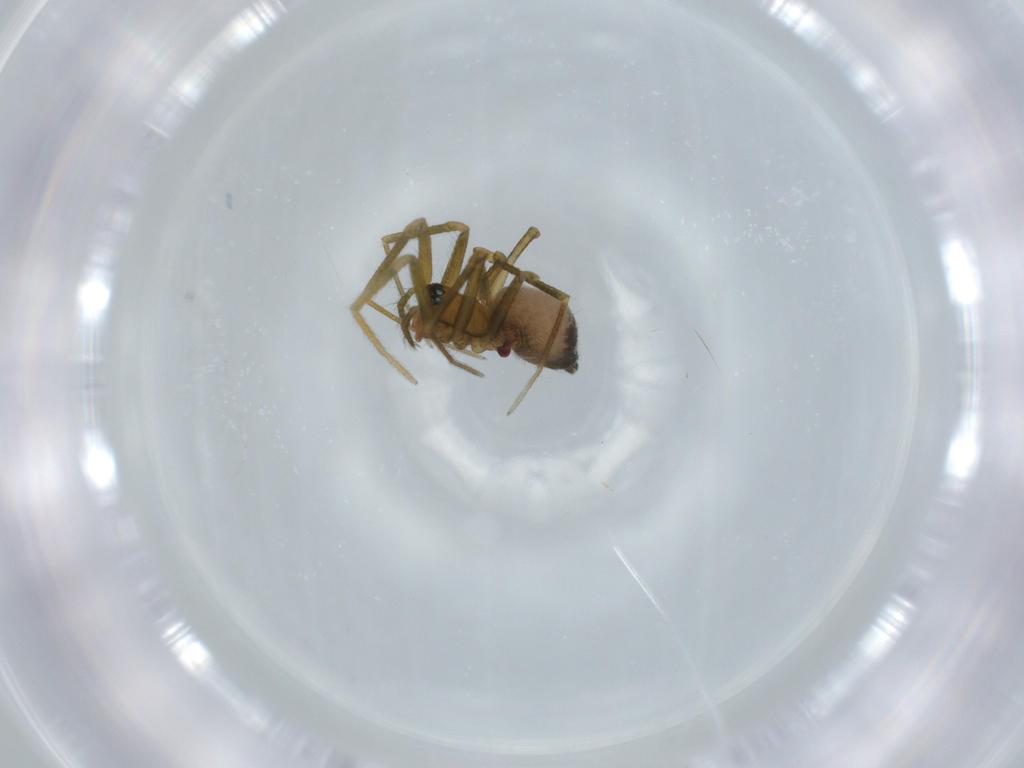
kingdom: Animalia
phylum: Arthropoda
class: Arachnida
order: Araneae
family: Linyphiidae
